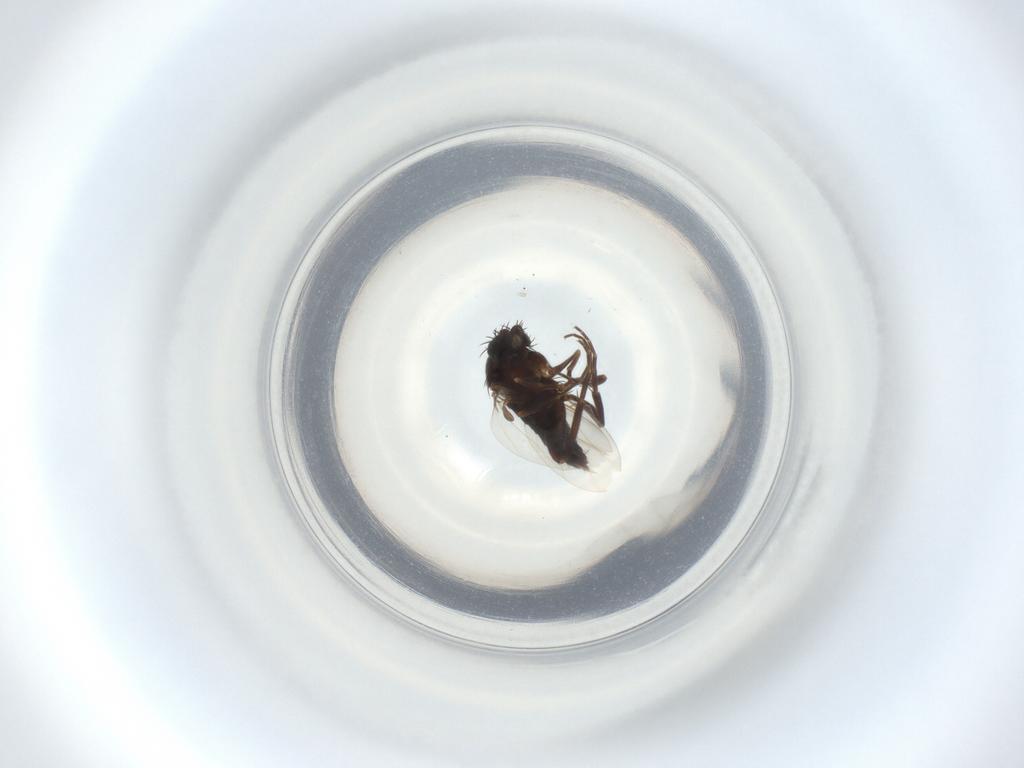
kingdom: Animalia
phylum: Arthropoda
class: Insecta
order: Diptera
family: Phoridae
